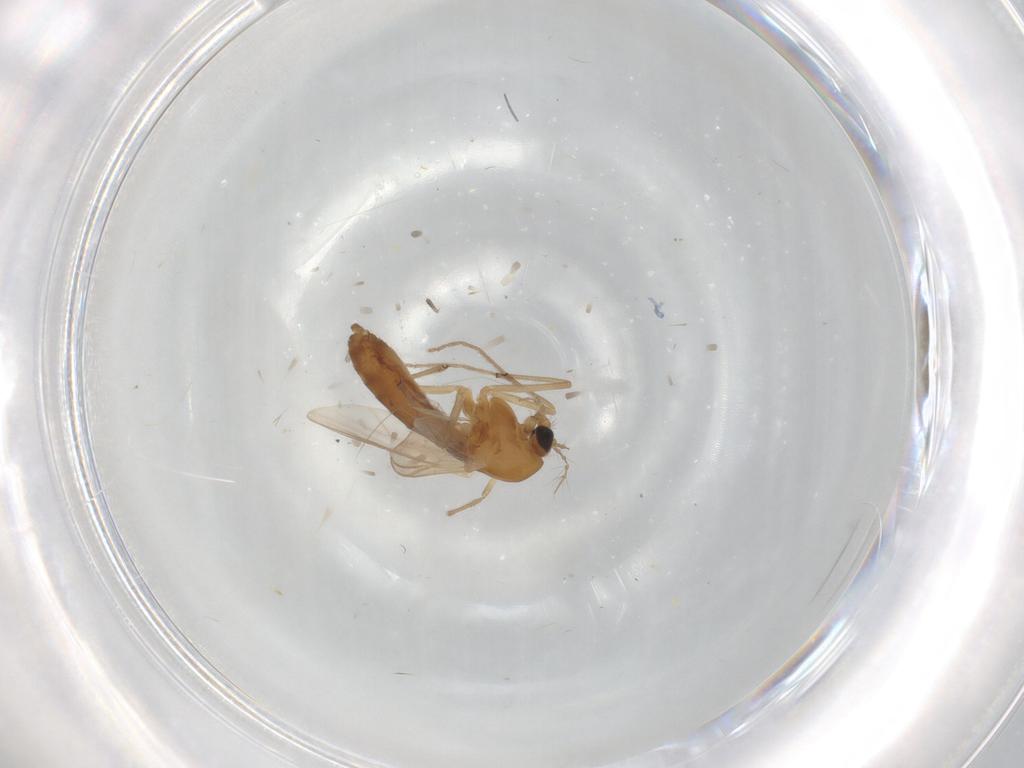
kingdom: Animalia
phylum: Arthropoda
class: Insecta
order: Diptera
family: Chironomidae
